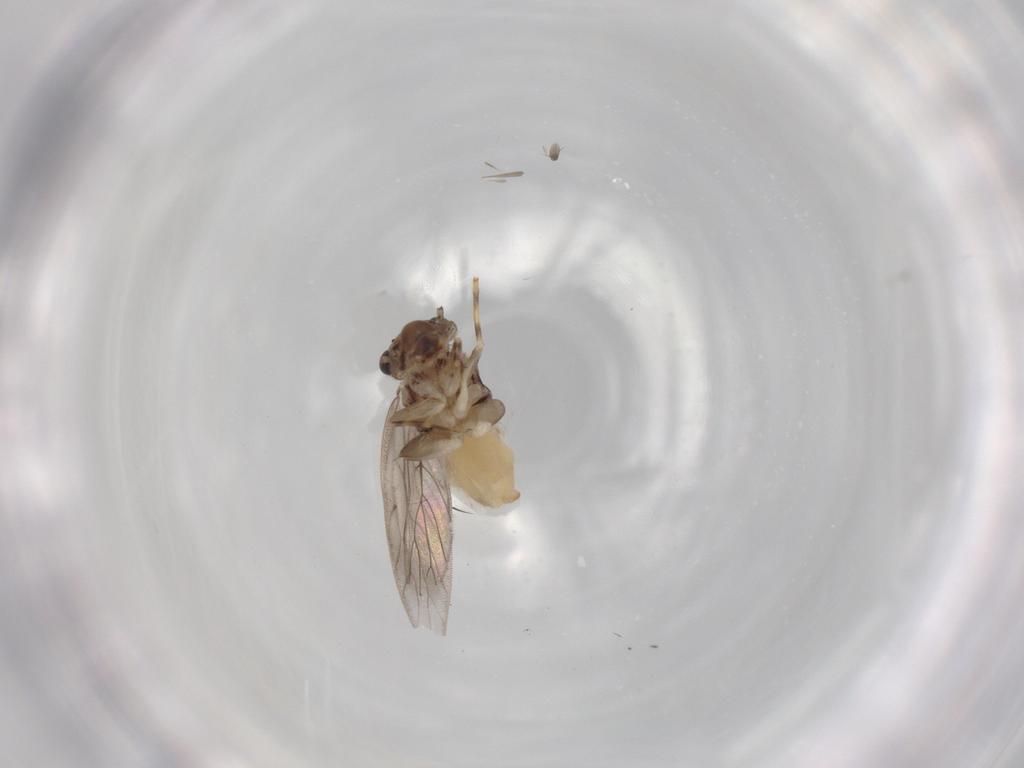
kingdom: Animalia
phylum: Arthropoda
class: Insecta
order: Psocodea
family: Lepidopsocidae
